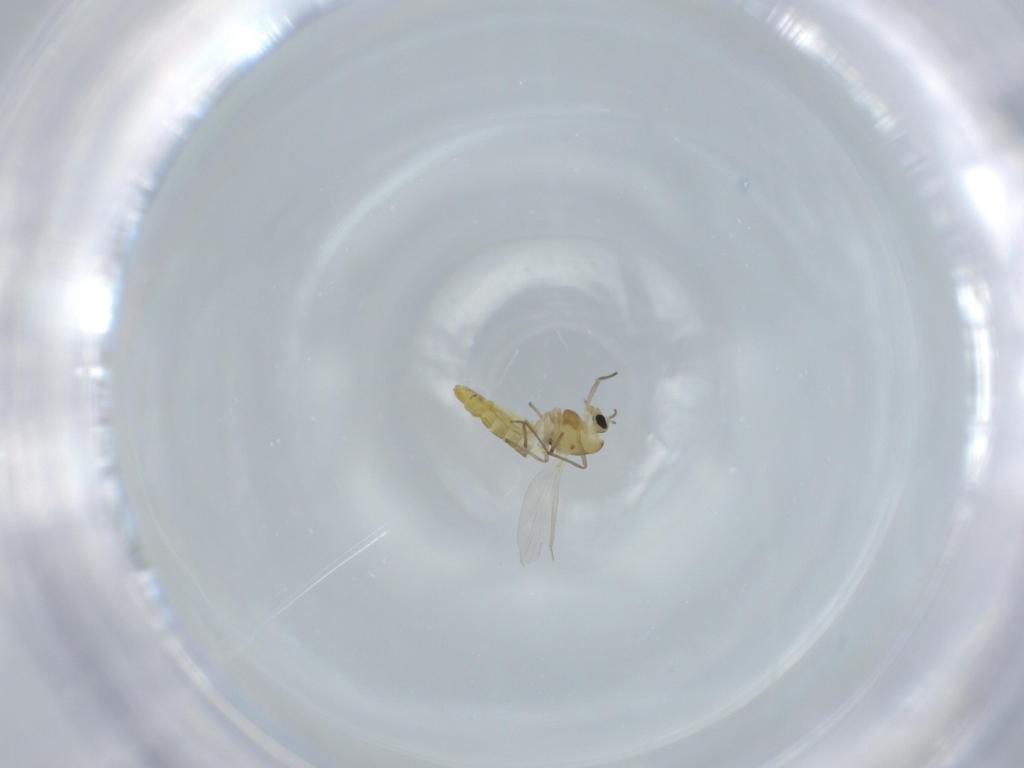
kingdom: Animalia
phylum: Arthropoda
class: Insecta
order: Diptera
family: Chironomidae
